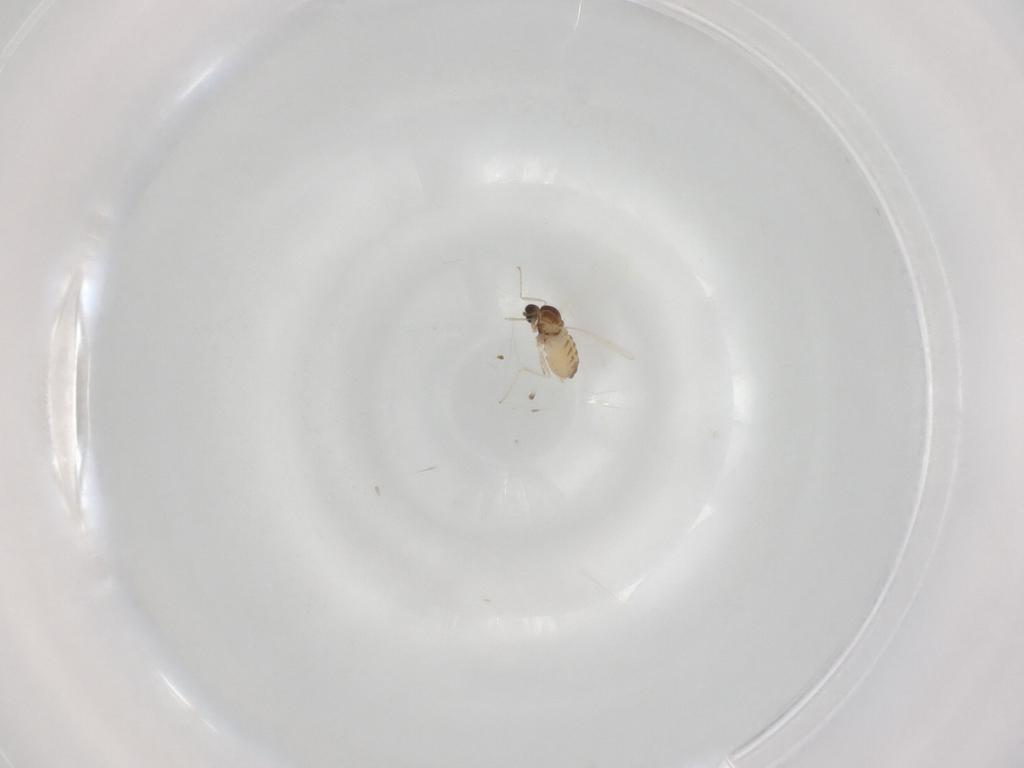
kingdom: Animalia
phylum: Arthropoda
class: Insecta
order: Diptera
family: Cecidomyiidae
